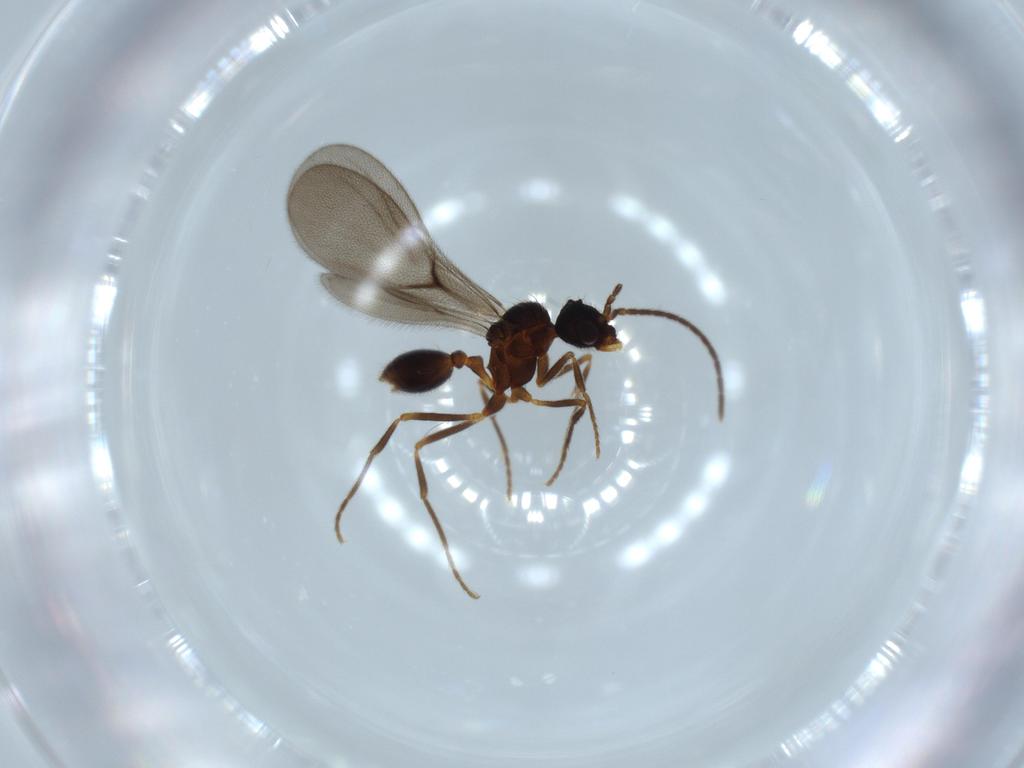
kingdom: Animalia
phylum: Arthropoda
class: Insecta
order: Hymenoptera
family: Formicidae
